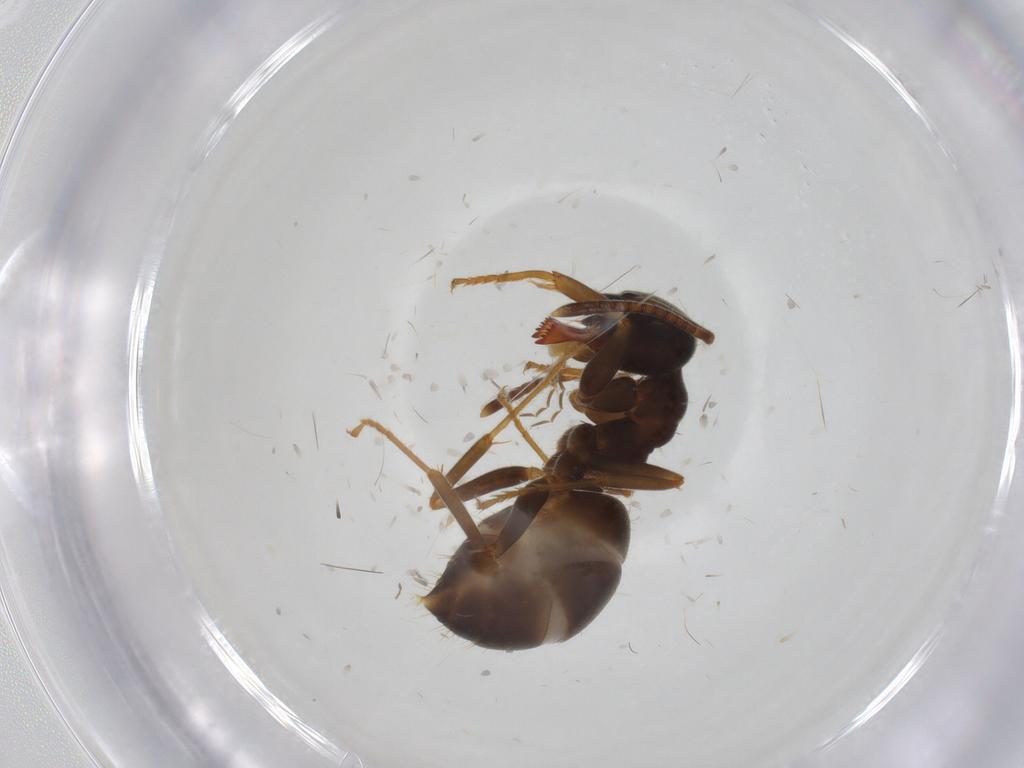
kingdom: Animalia
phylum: Arthropoda
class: Insecta
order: Hymenoptera
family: Formicidae
